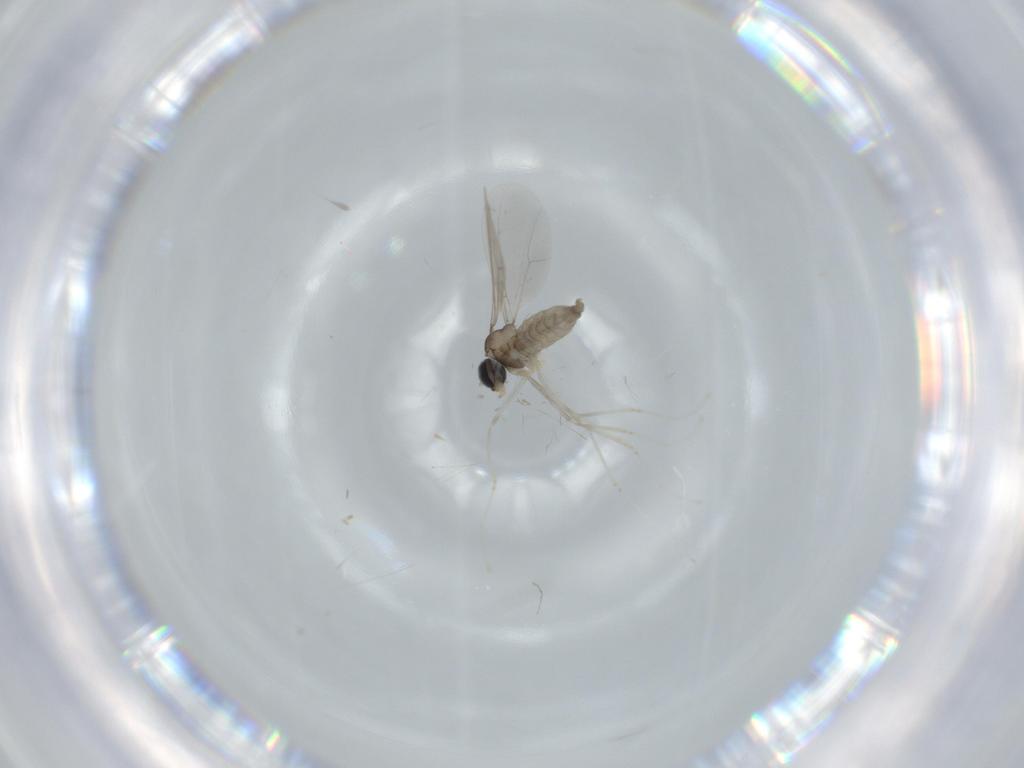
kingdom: Animalia
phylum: Arthropoda
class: Insecta
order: Diptera
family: Cecidomyiidae
